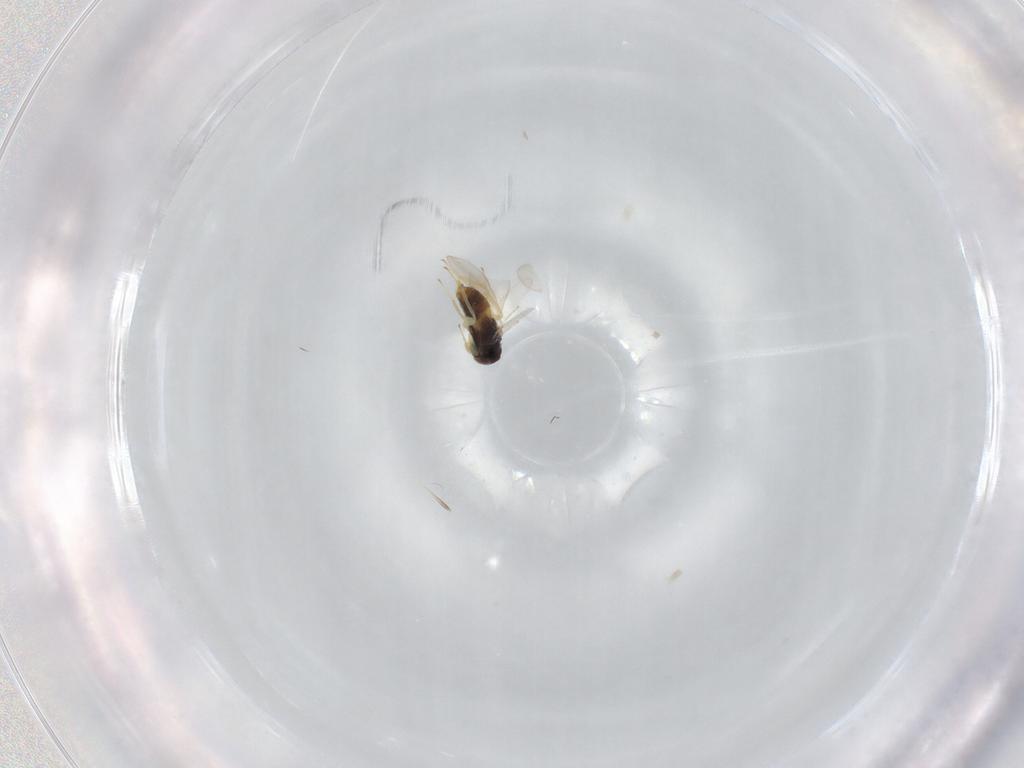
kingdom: Animalia
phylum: Arthropoda
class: Insecta
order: Hymenoptera
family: Aphelinidae
